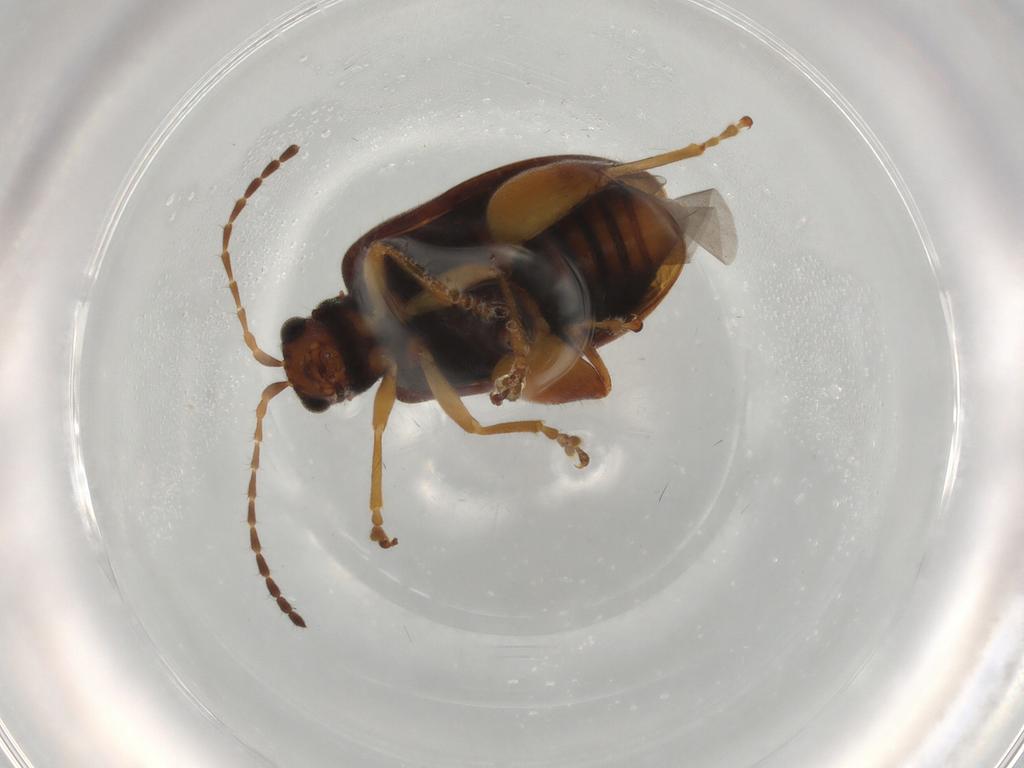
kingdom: Animalia
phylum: Arthropoda
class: Insecta
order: Coleoptera
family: Chrysomelidae
